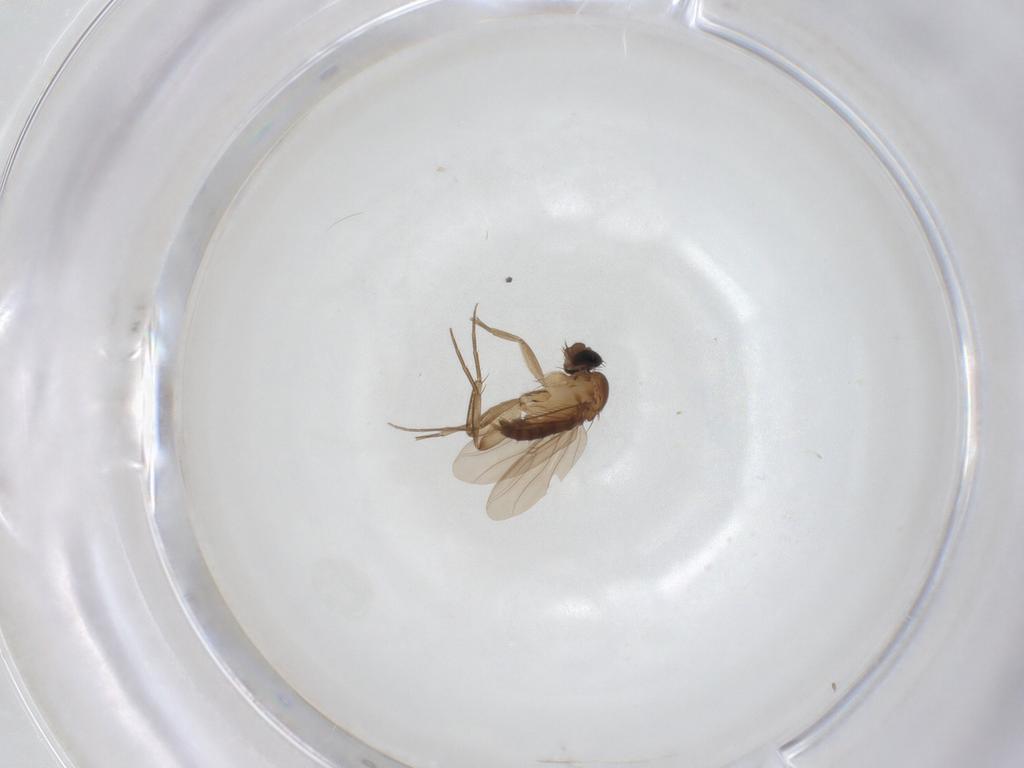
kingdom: Animalia
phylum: Arthropoda
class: Insecta
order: Diptera
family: Phoridae
